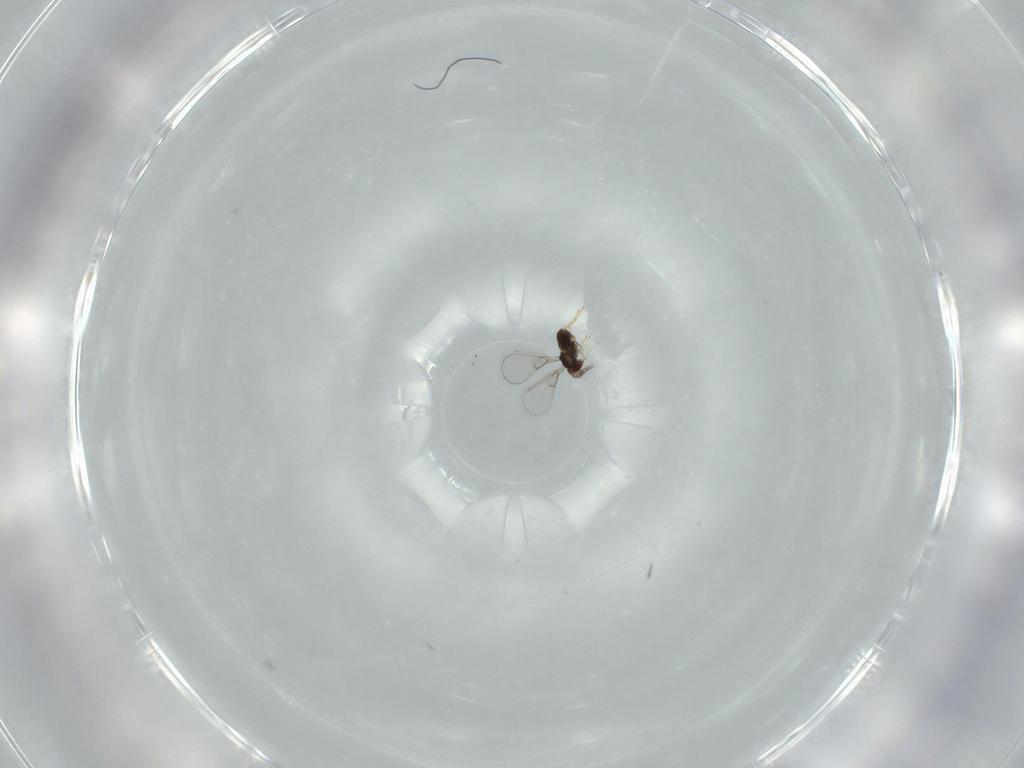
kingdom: Animalia
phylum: Arthropoda
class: Insecta
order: Hymenoptera
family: Trichogrammatidae
